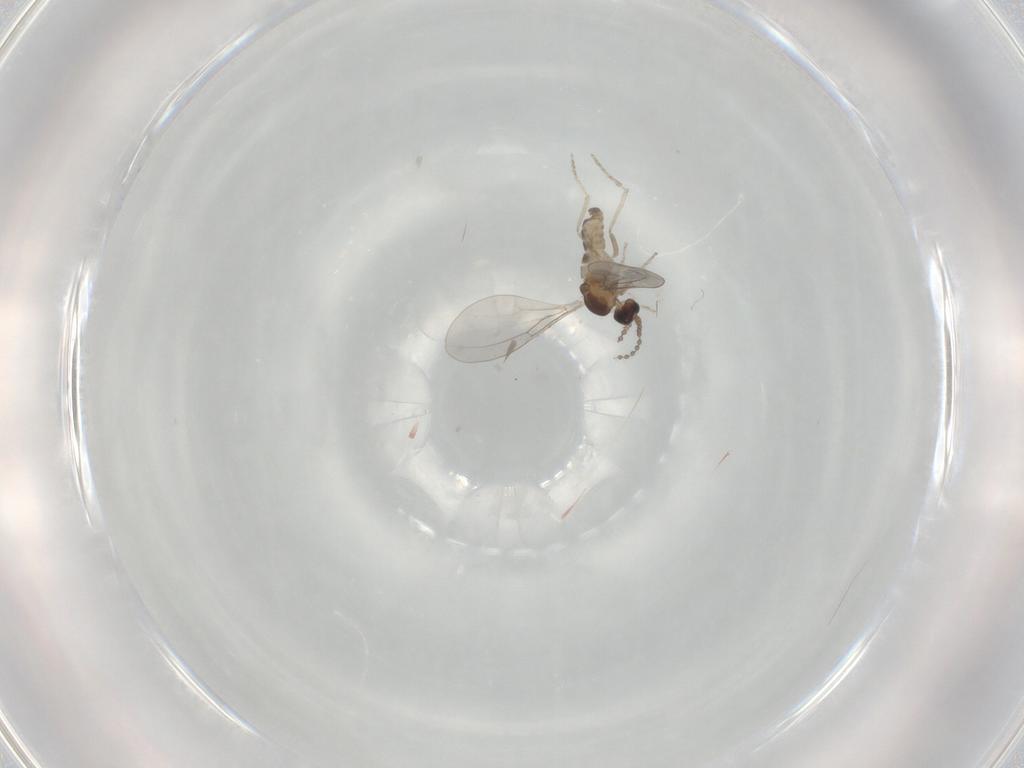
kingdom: Animalia
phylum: Arthropoda
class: Insecta
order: Diptera
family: Cecidomyiidae
